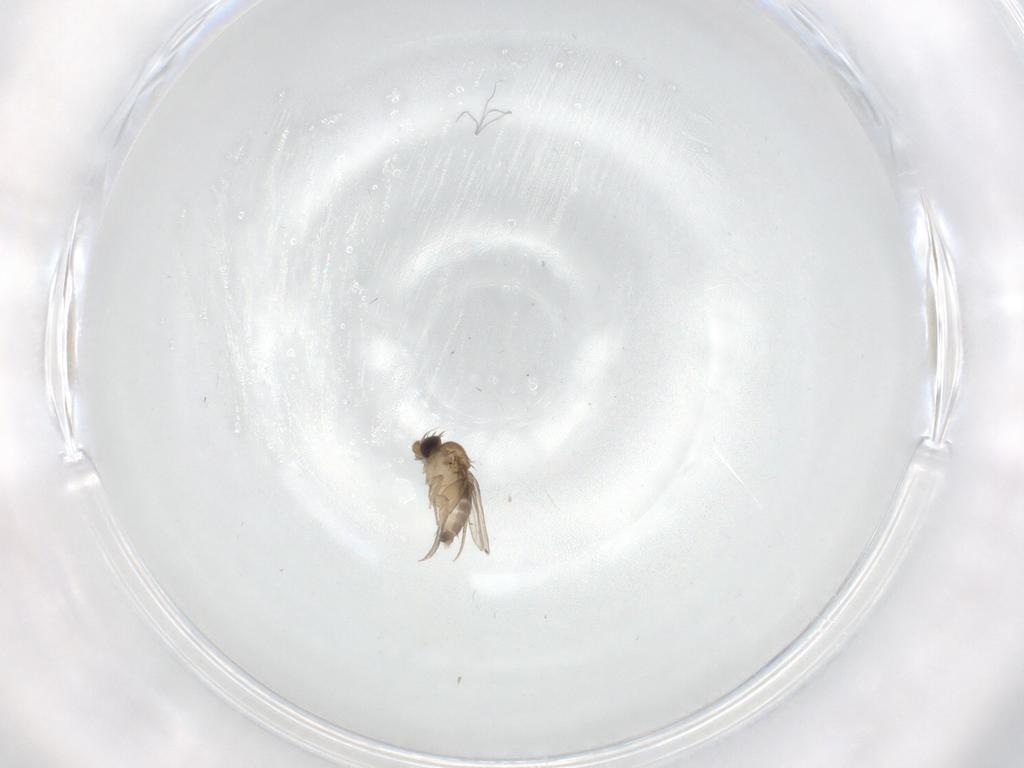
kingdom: Animalia
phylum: Arthropoda
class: Insecta
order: Diptera
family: Phoridae
